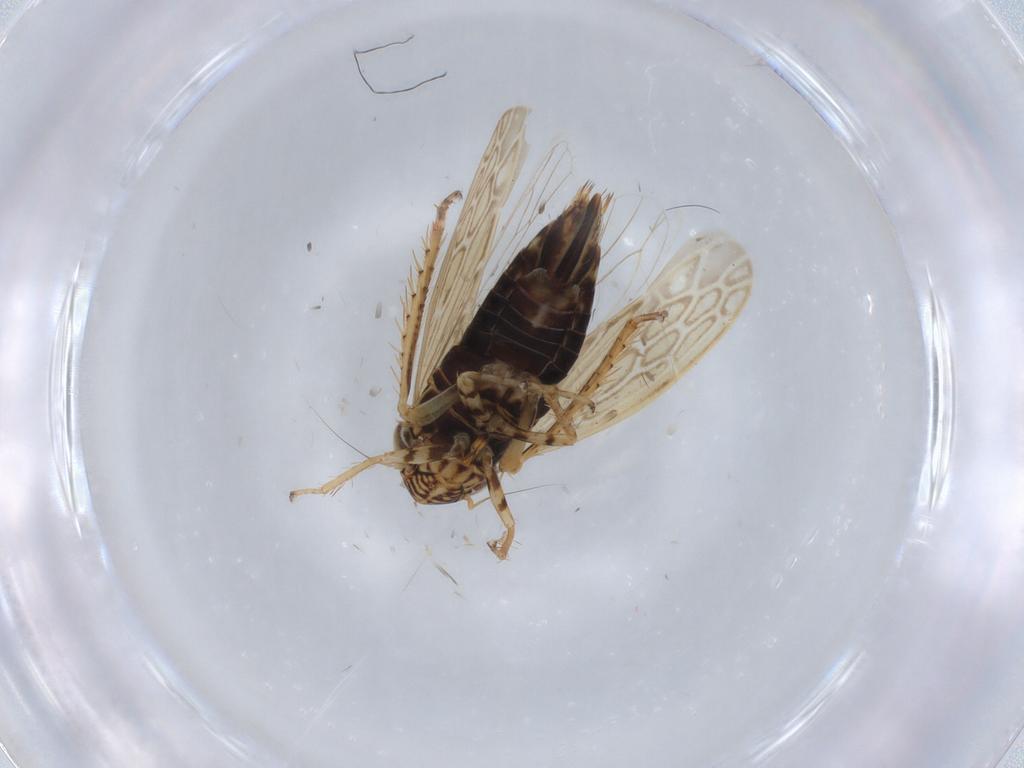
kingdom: Animalia
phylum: Arthropoda
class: Insecta
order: Hemiptera
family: Cicadellidae
